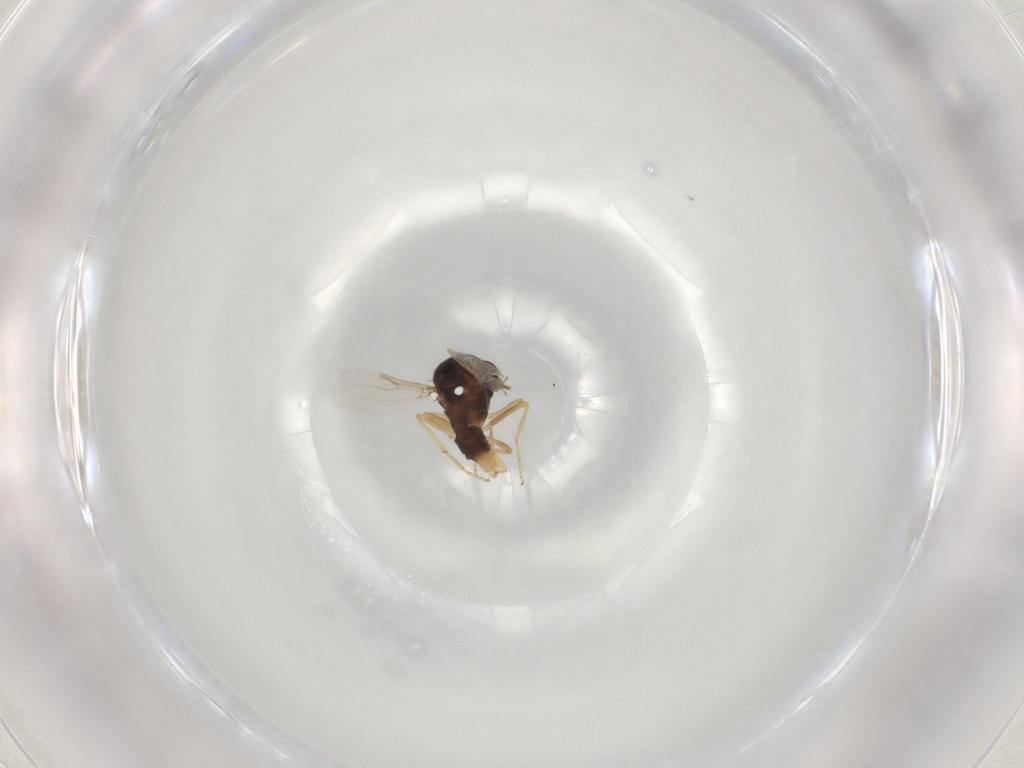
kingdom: Animalia
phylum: Arthropoda
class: Insecta
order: Diptera
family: Ceratopogonidae
